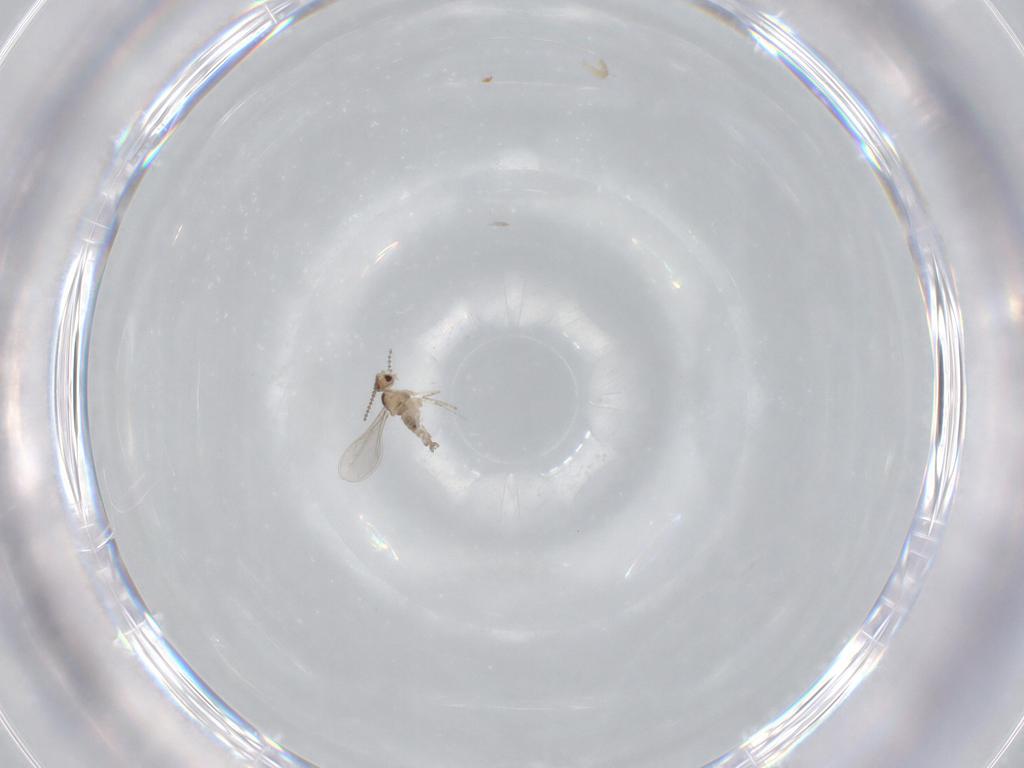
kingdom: Animalia
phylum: Arthropoda
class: Insecta
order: Diptera
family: Cecidomyiidae
